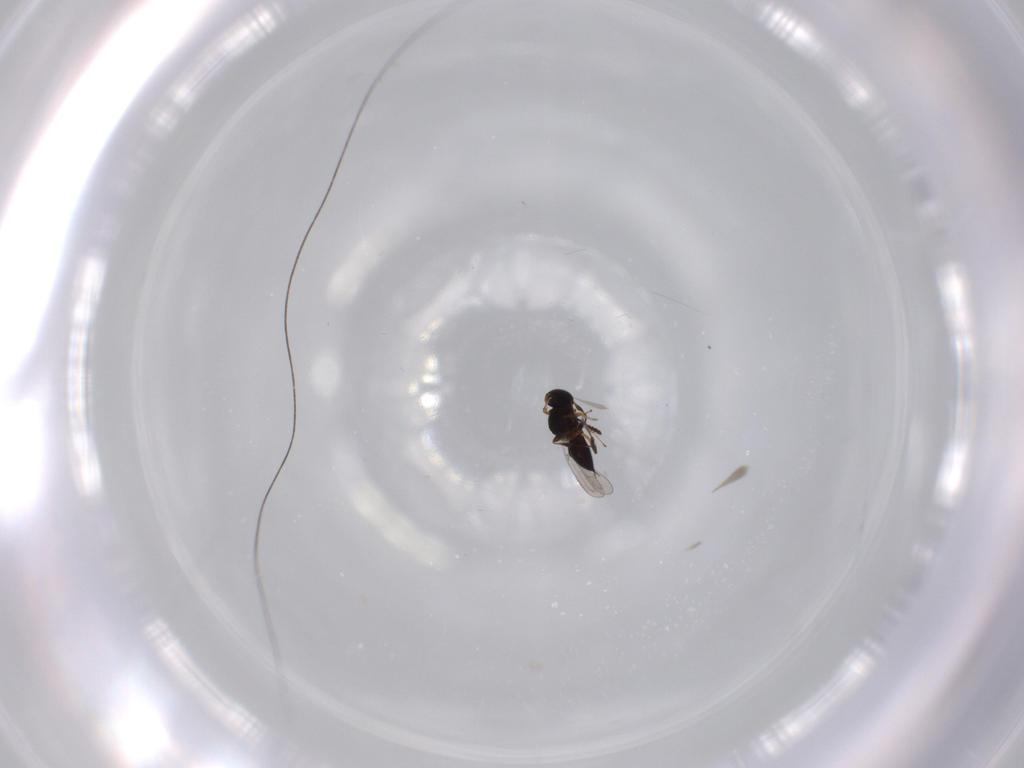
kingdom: Animalia
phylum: Arthropoda
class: Insecta
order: Hymenoptera
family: Platygastridae
